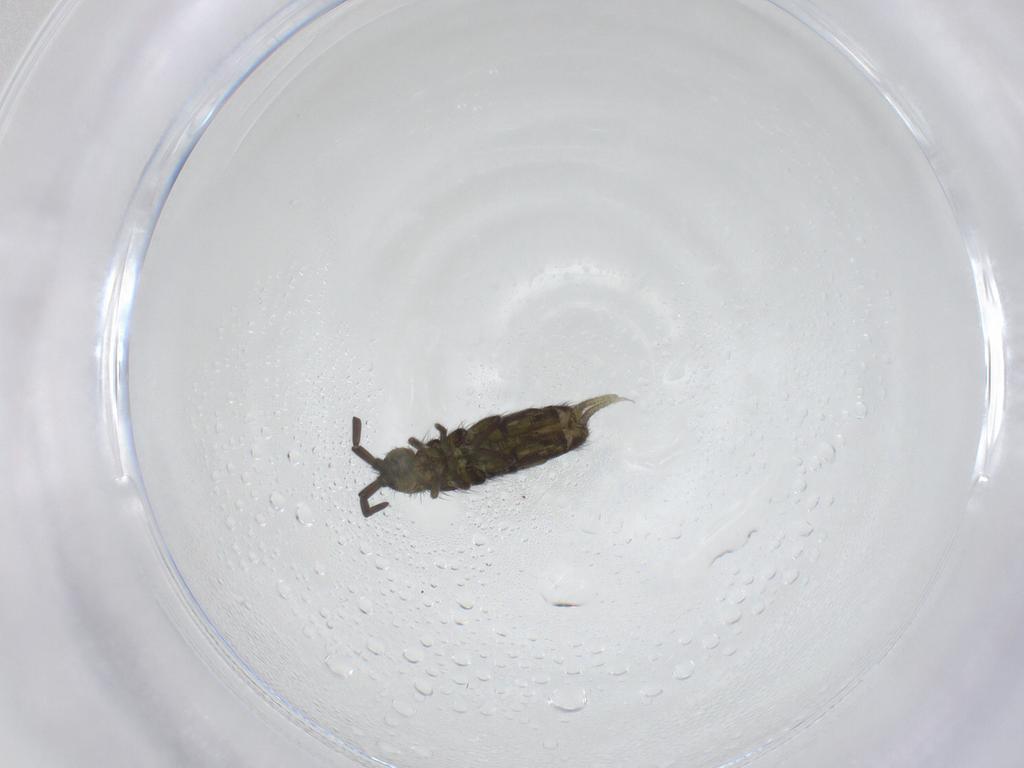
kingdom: Animalia
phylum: Arthropoda
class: Collembola
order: Entomobryomorpha
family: Isotomidae
